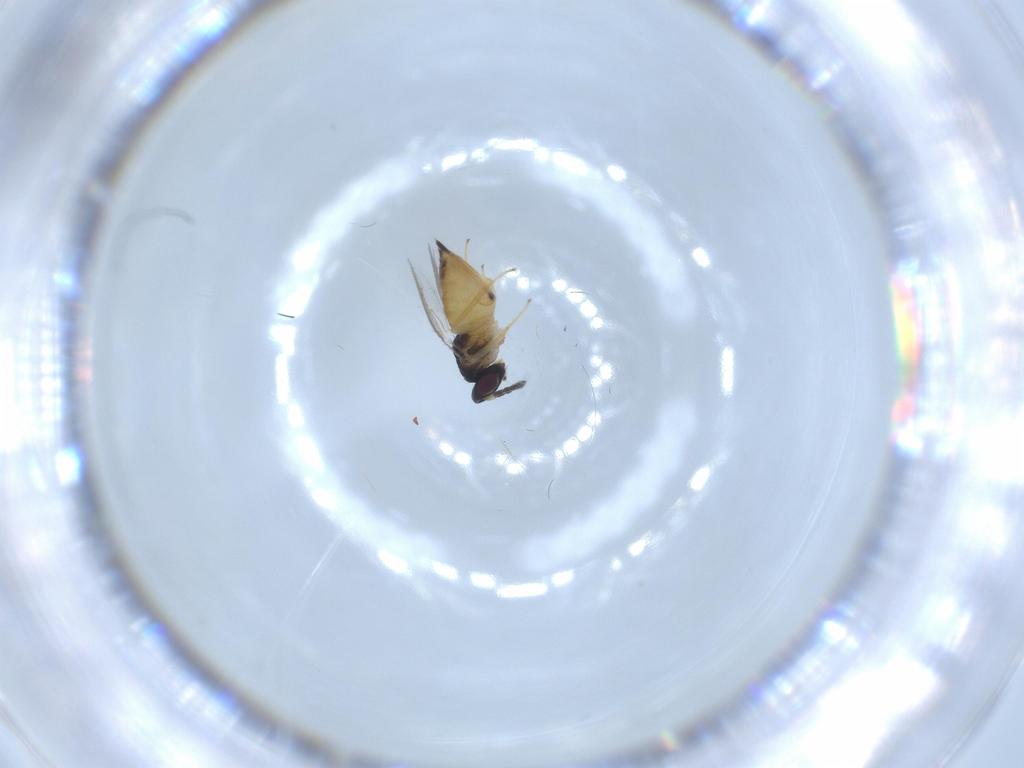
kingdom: Animalia
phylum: Arthropoda
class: Insecta
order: Hymenoptera
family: Eulophidae
